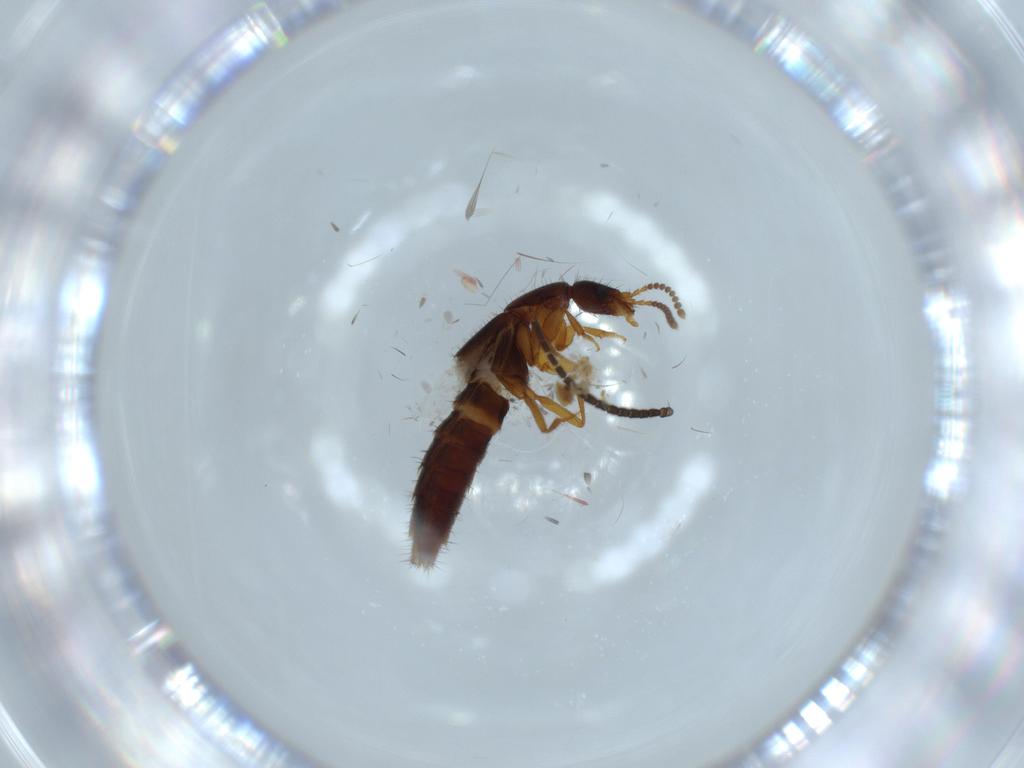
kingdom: Animalia
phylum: Arthropoda
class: Insecta
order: Coleoptera
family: Staphylinidae
